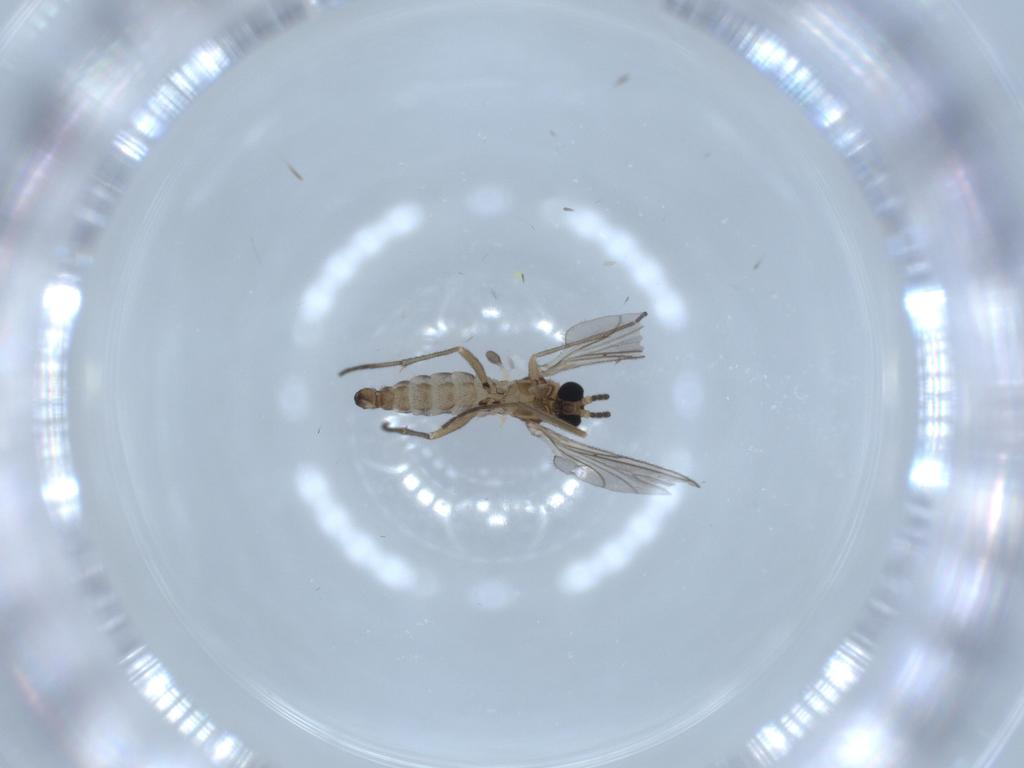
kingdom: Animalia
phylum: Arthropoda
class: Insecta
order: Diptera
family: Sciaridae
